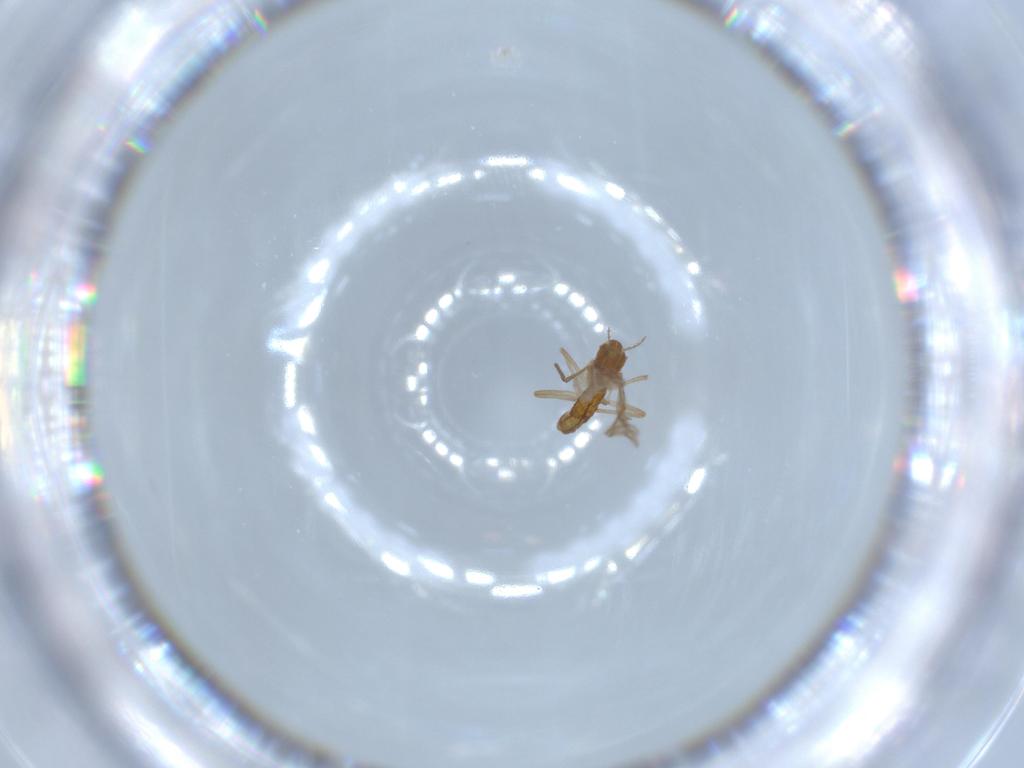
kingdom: Animalia
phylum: Arthropoda
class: Insecta
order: Diptera
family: Chironomidae
